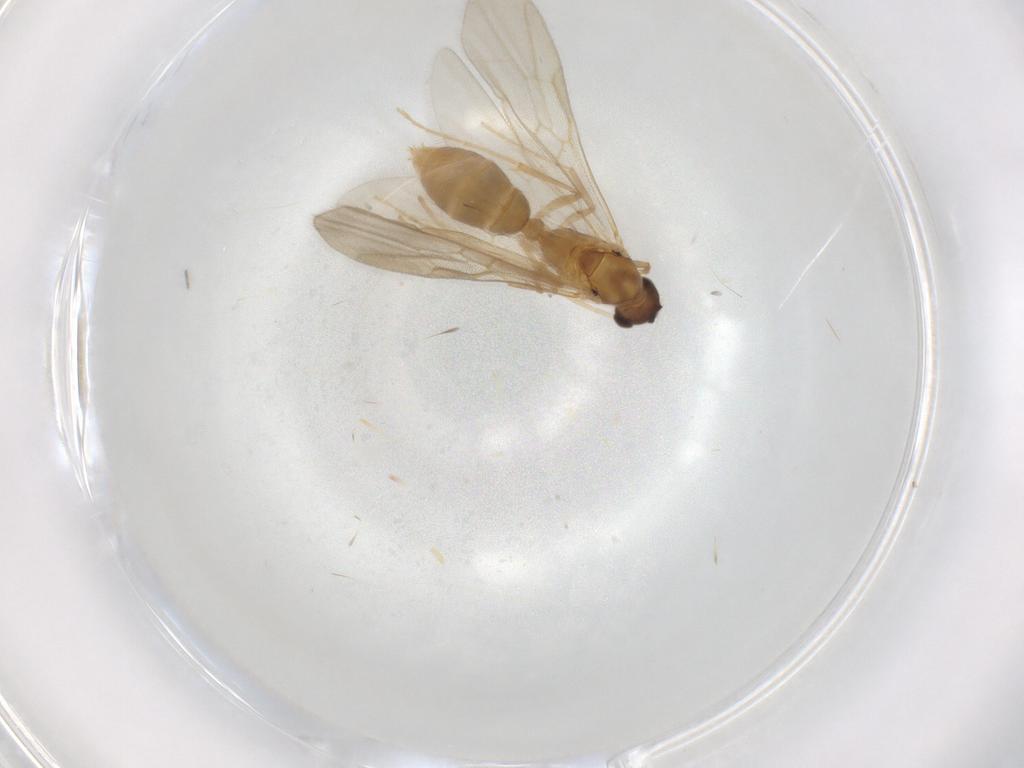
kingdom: Animalia
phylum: Arthropoda
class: Insecta
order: Hymenoptera
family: Formicidae
